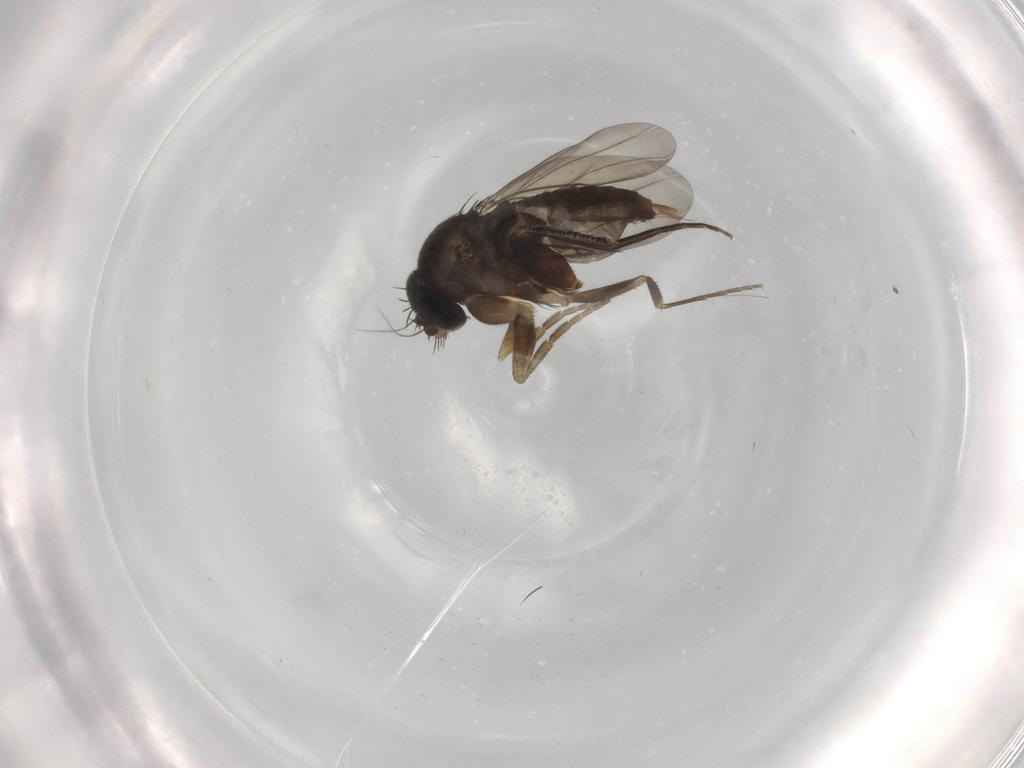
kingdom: Animalia
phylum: Arthropoda
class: Insecta
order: Diptera
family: Phoridae
